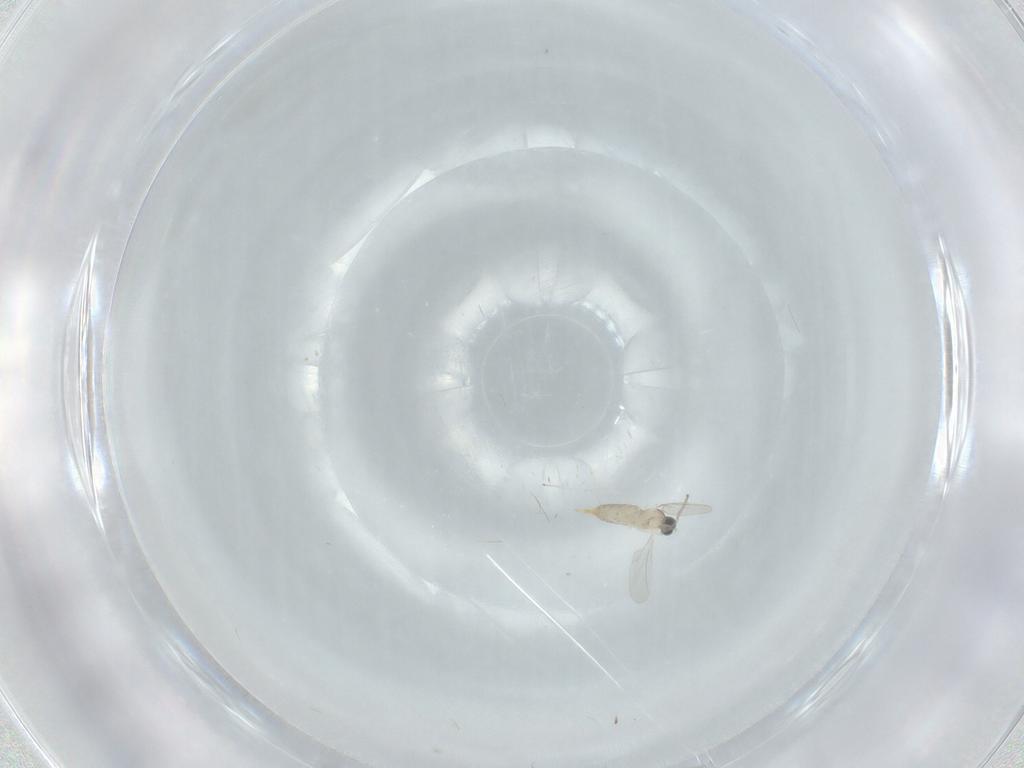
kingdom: Animalia
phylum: Arthropoda
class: Insecta
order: Diptera
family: Cecidomyiidae
